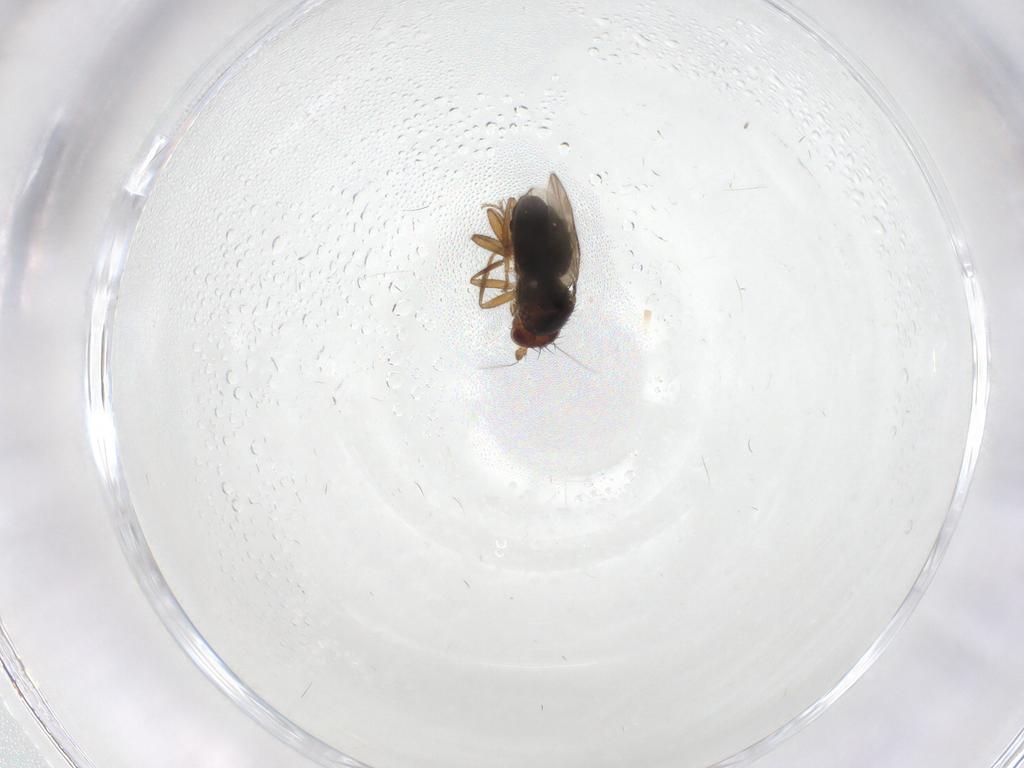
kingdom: Animalia
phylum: Arthropoda
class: Insecta
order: Diptera
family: Sphaeroceridae
